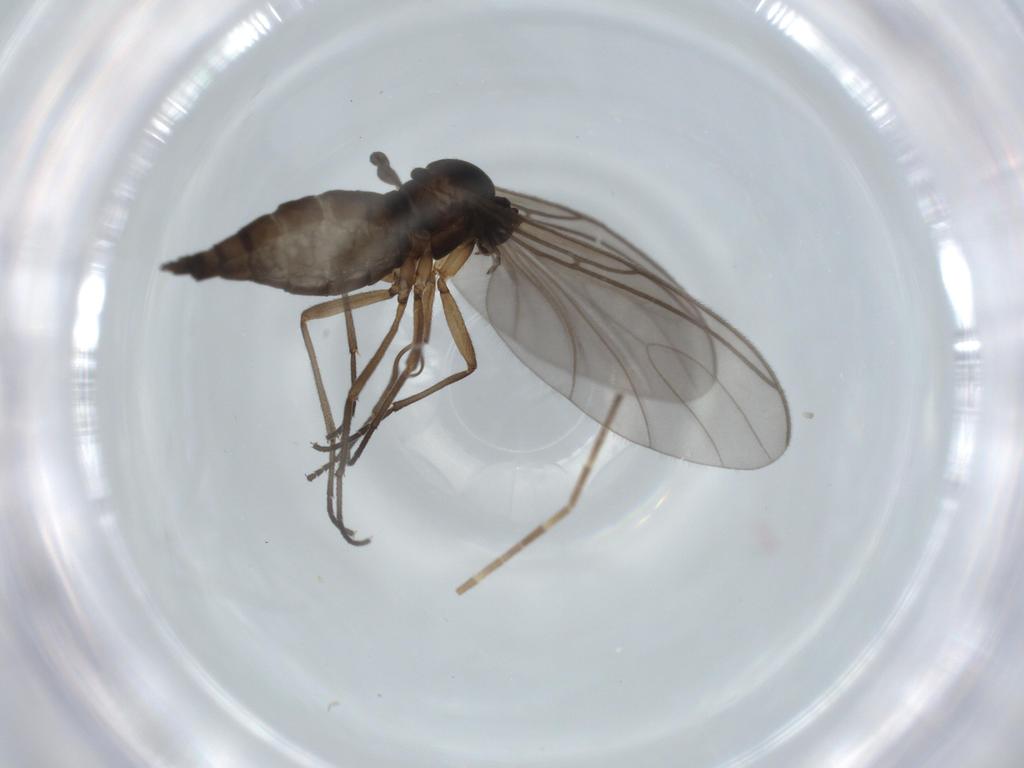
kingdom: Animalia
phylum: Arthropoda
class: Insecta
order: Diptera
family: Sciaridae
